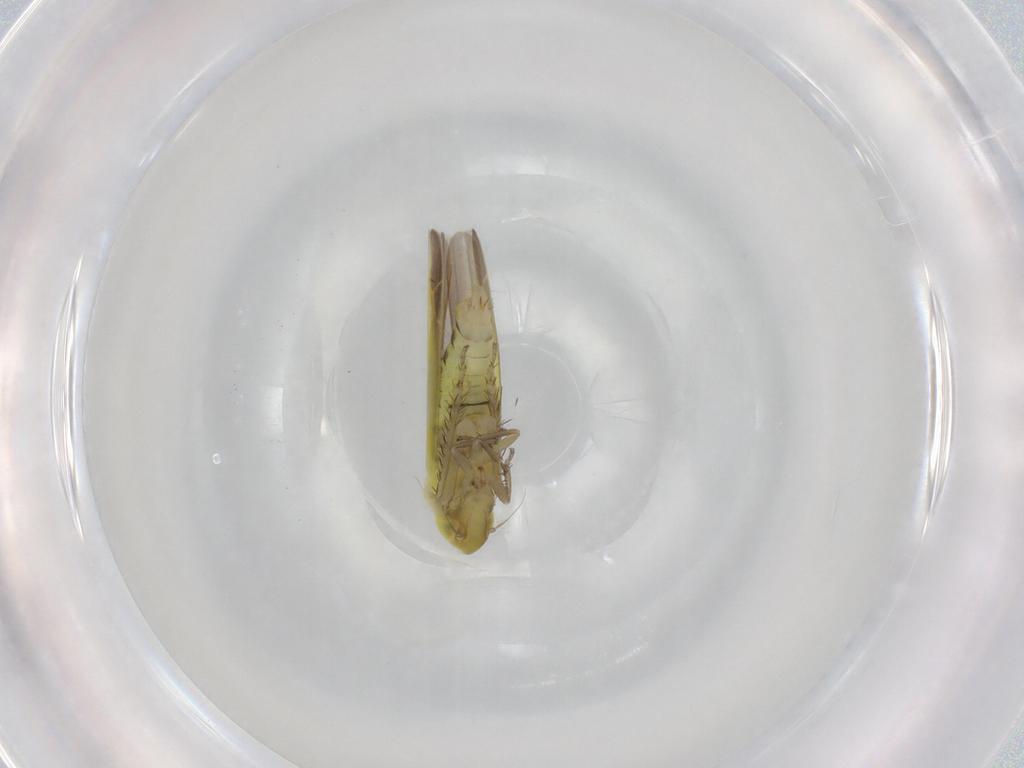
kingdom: Animalia
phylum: Arthropoda
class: Insecta
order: Hemiptera
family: Cicadellidae
